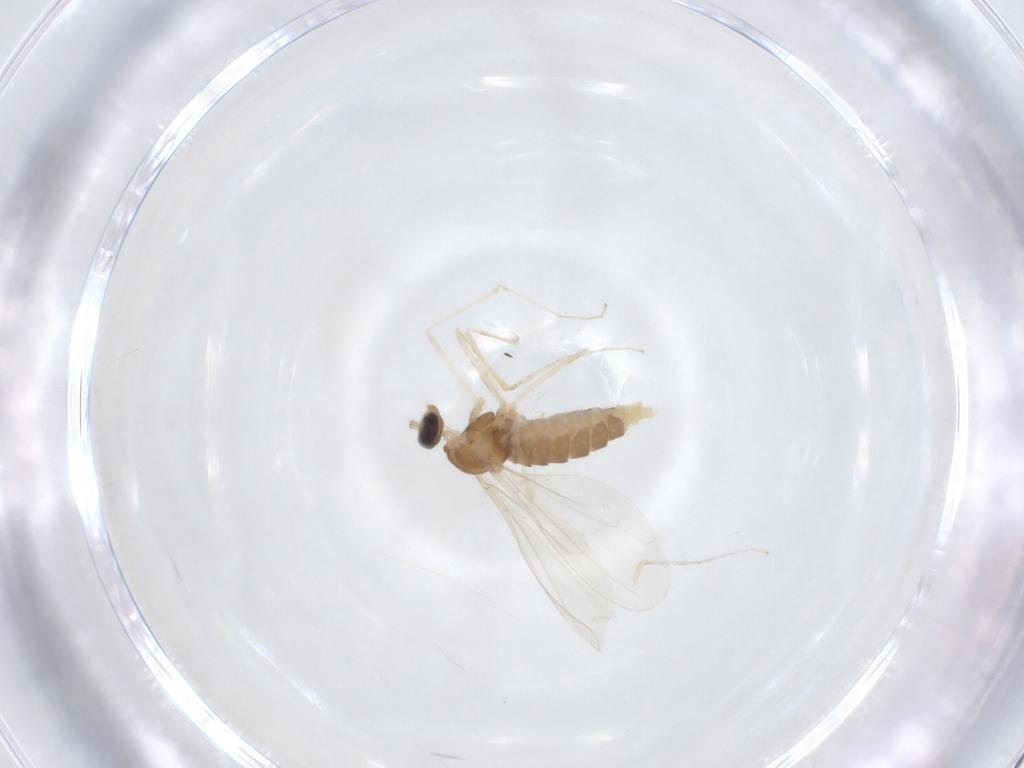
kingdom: Animalia
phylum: Arthropoda
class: Insecta
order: Diptera
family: Cecidomyiidae
